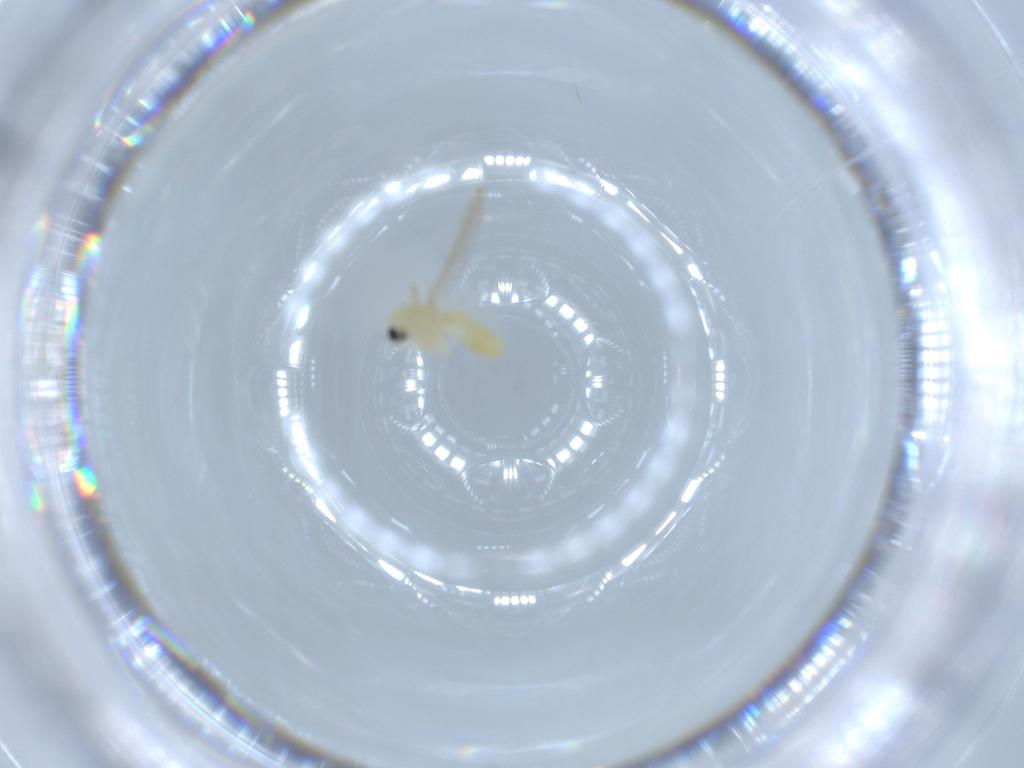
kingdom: Animalia
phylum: Arthropoda
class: Insecta
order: Diptera
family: Chironomidae
